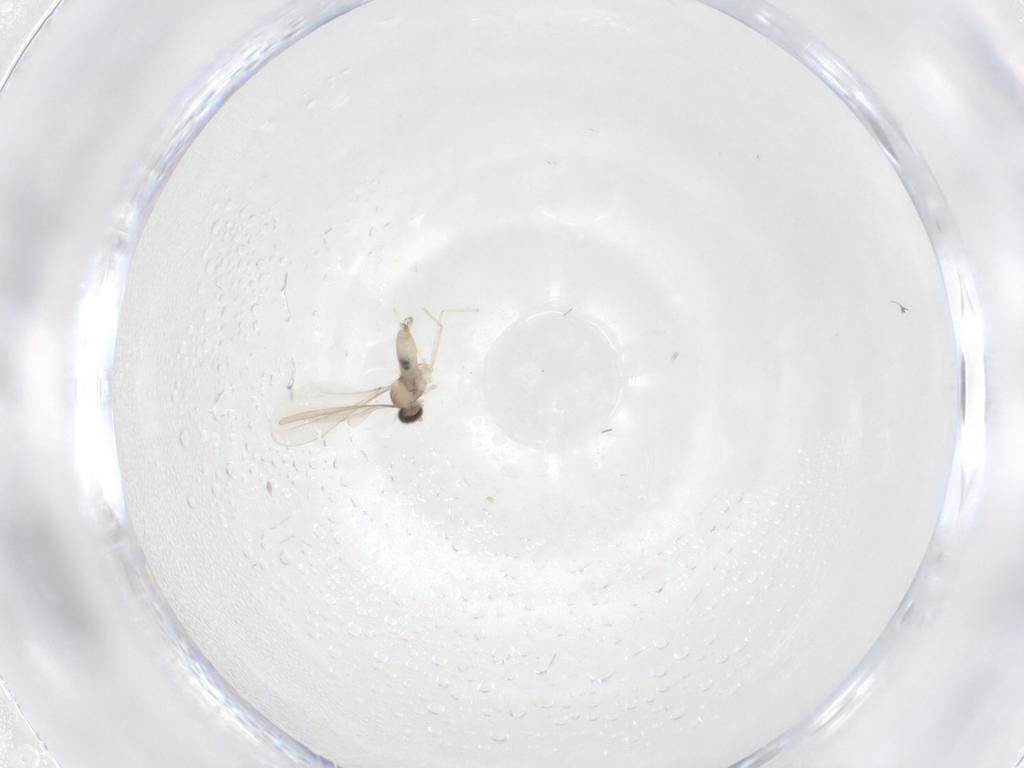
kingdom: Animalia
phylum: Arthropoda
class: Insecta
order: Diptera
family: Cecidomyiidae
